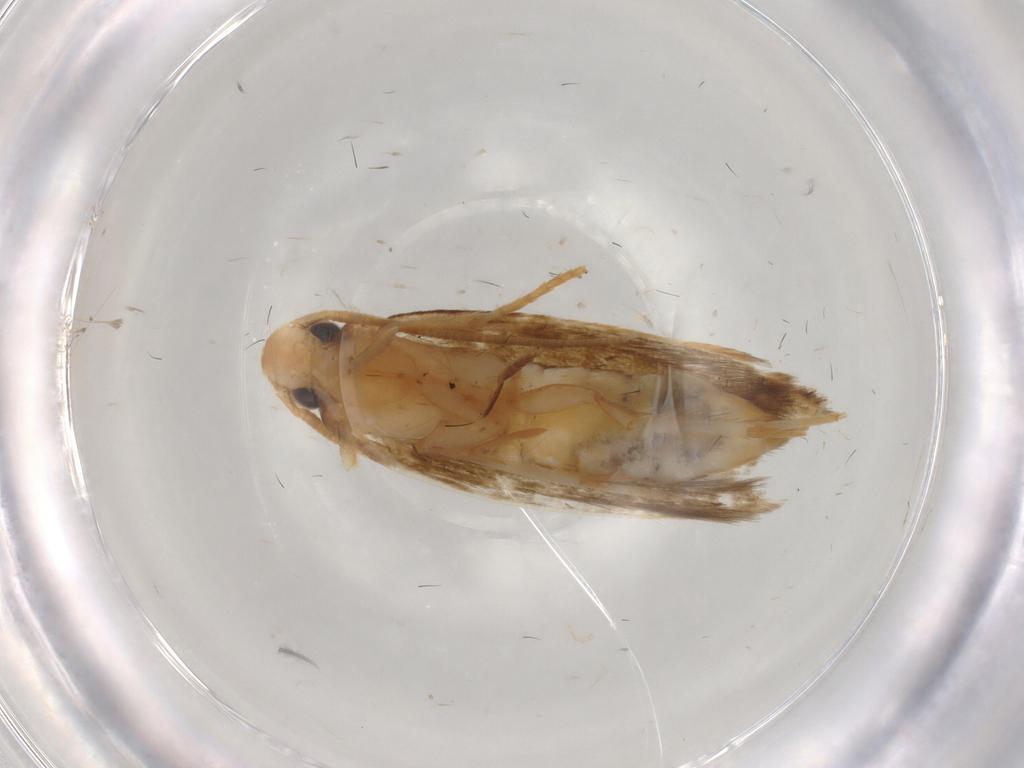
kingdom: Animalia
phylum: Arthropoda
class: Insecta
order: Lepidoptera
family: Tineidae
